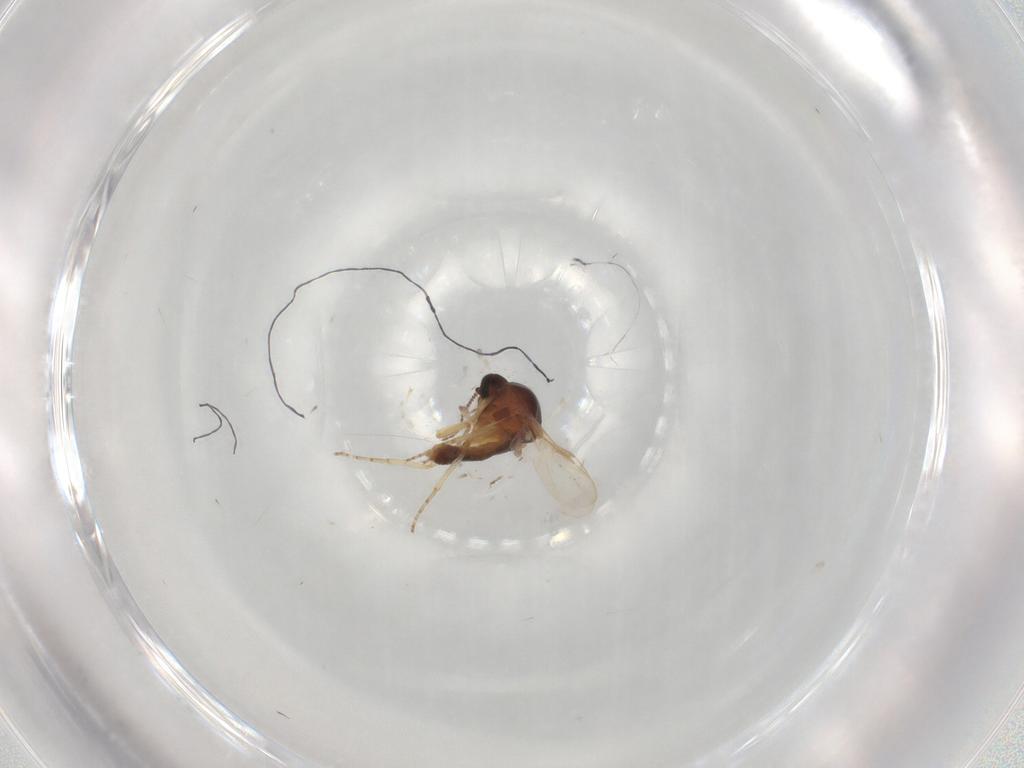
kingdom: Animalia
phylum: Arthropoda
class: Insecta
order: Diptera
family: Ceratopogonidae
